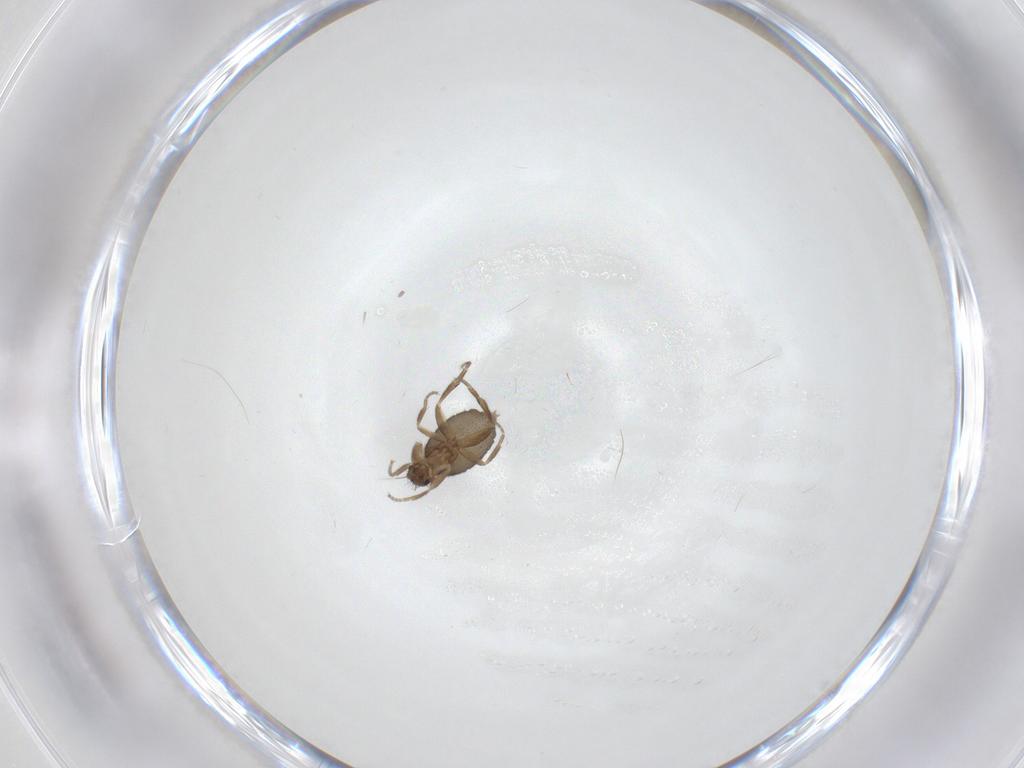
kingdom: Animalia
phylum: Arthropoda
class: Insecta
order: Diptera
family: Phoridae
